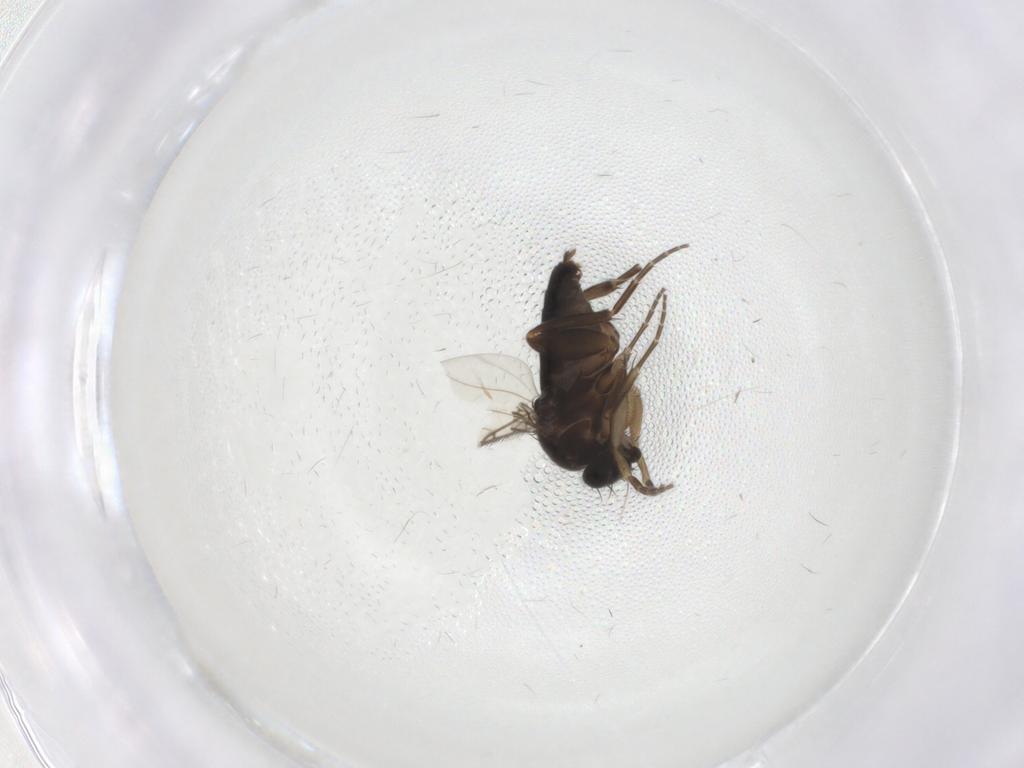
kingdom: Animalia
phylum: Arthropoda
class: Insecta
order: Diptera
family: Phoridae
